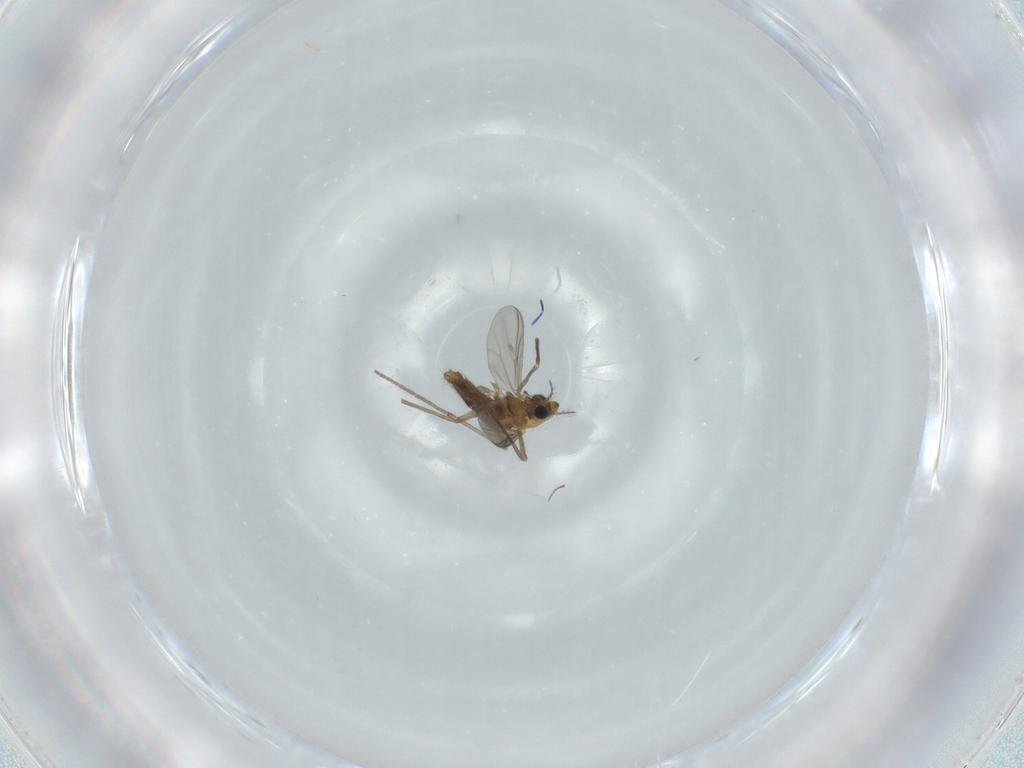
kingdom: Animalia
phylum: Arthropoda
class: Insecta
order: Diptera
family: Chironomidae
